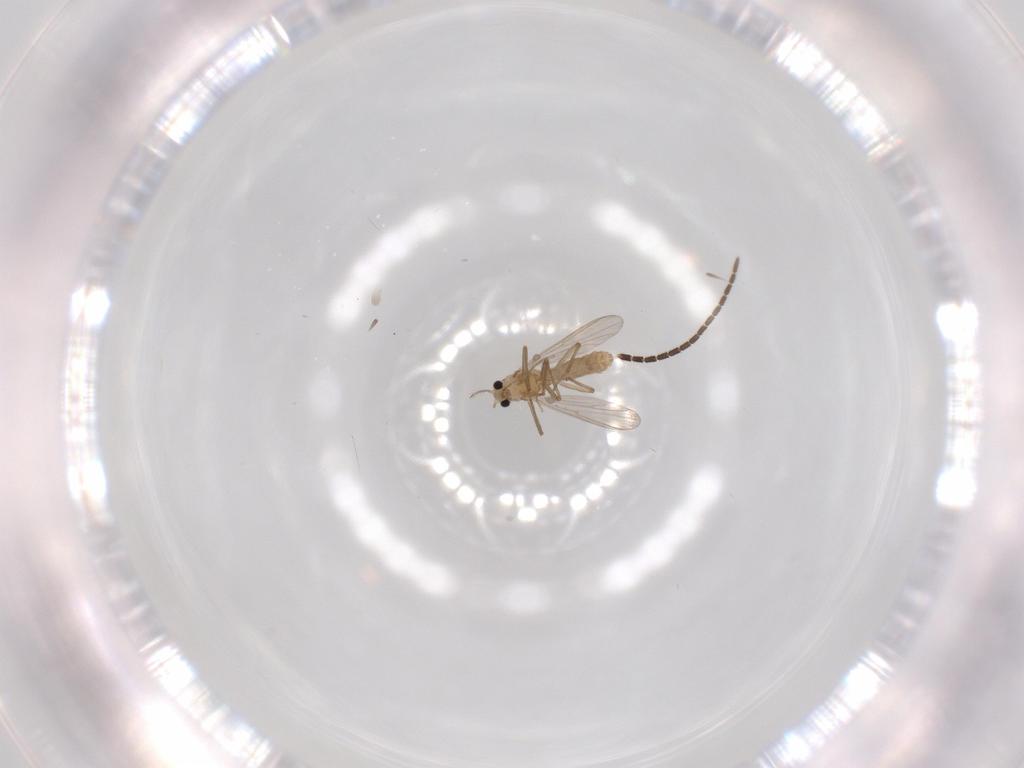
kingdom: Animalia
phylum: Arthropoda
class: Insecta
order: Diptera
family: Chironomidae
